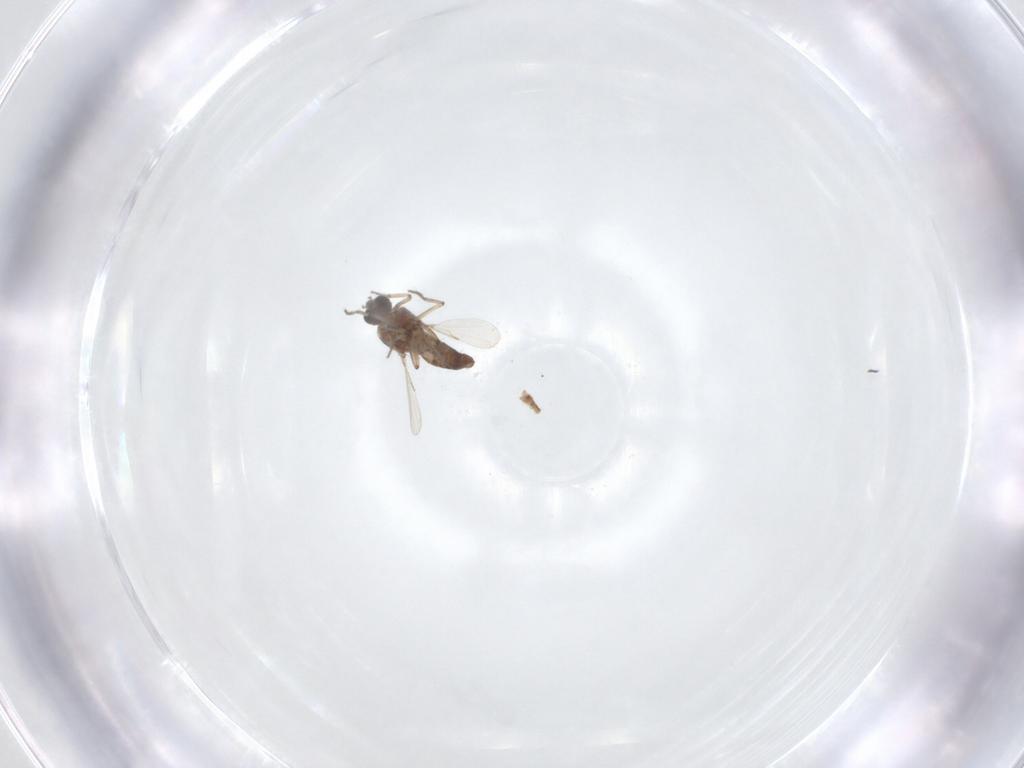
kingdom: Animalia
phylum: Arthropoda
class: Insecta
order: Diptera
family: Ceratopogonidae
